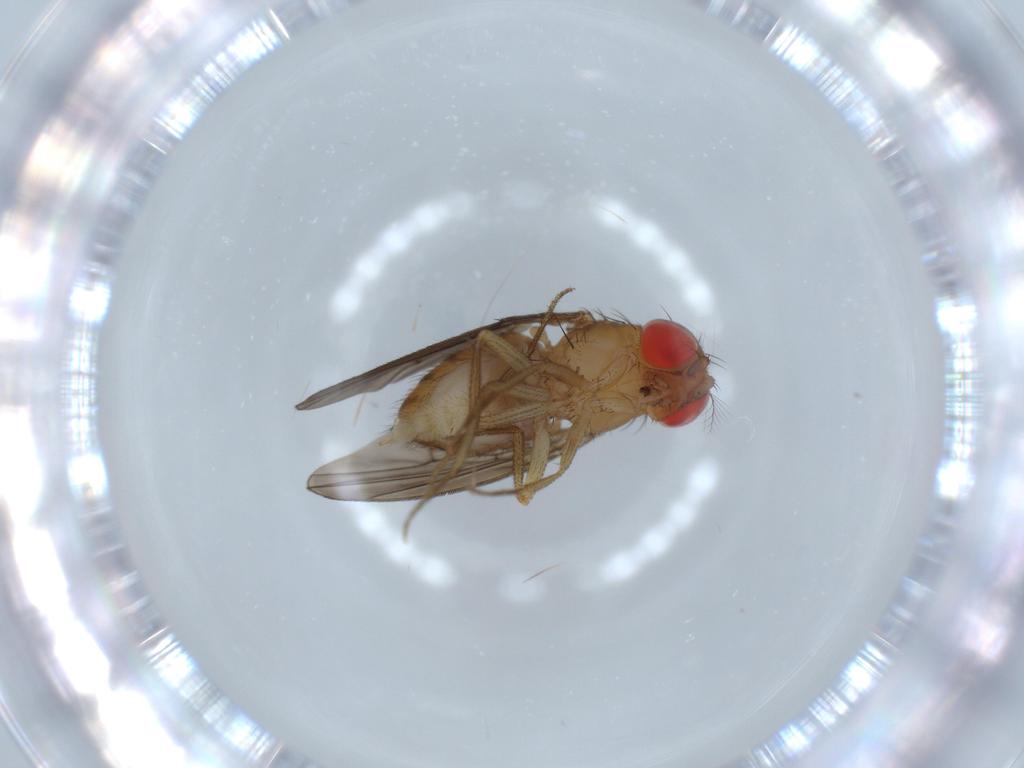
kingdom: Animalia
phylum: Arthropoda
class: Insecta
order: Diptera
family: Drosophilidae
